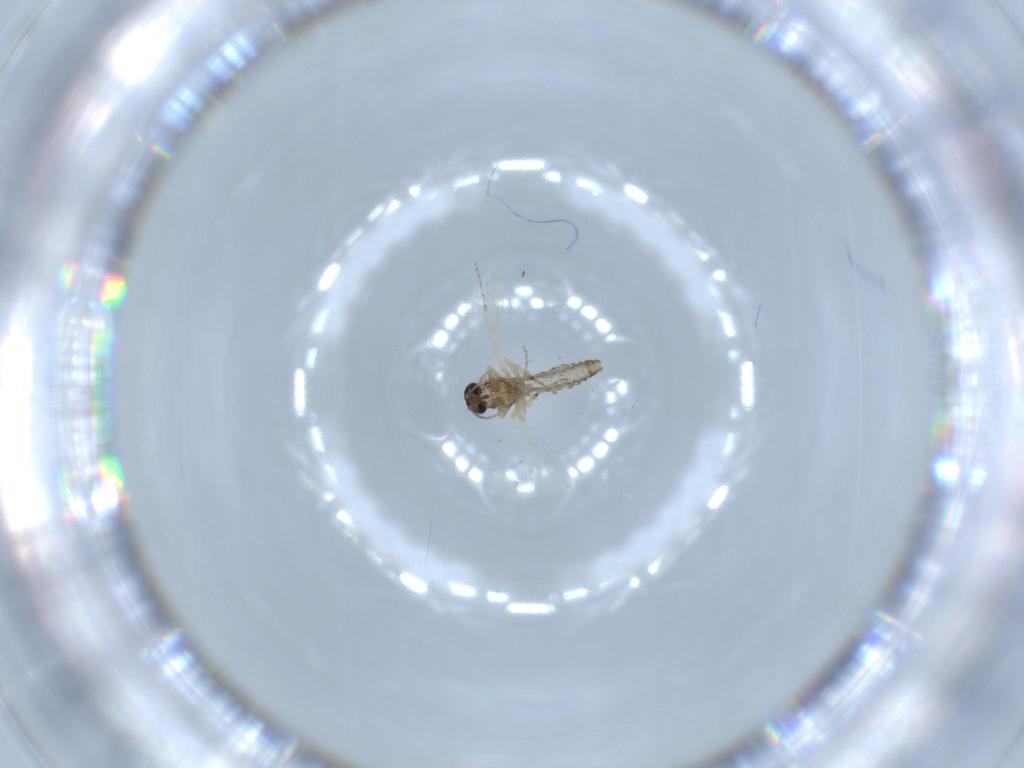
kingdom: Animalia
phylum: Arthropoda
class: Insecta
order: Diptera
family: Ceratopogonidae
